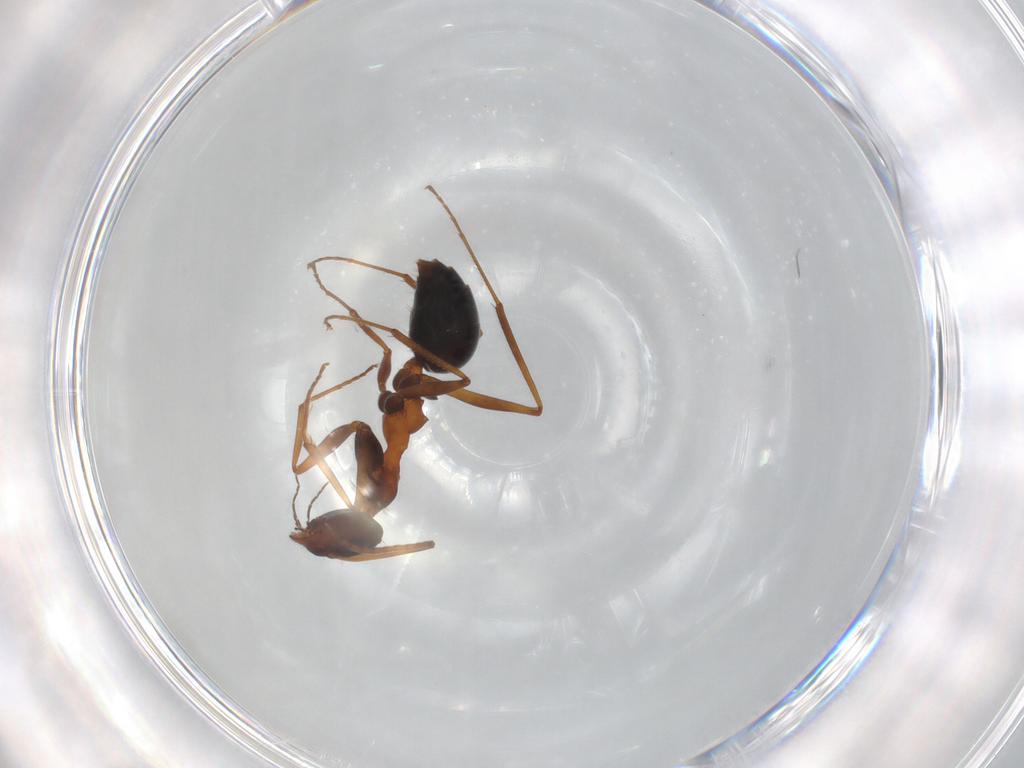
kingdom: Animalia
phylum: Arthropoda
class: Insecta
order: Hymenoptera
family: Formicidae
